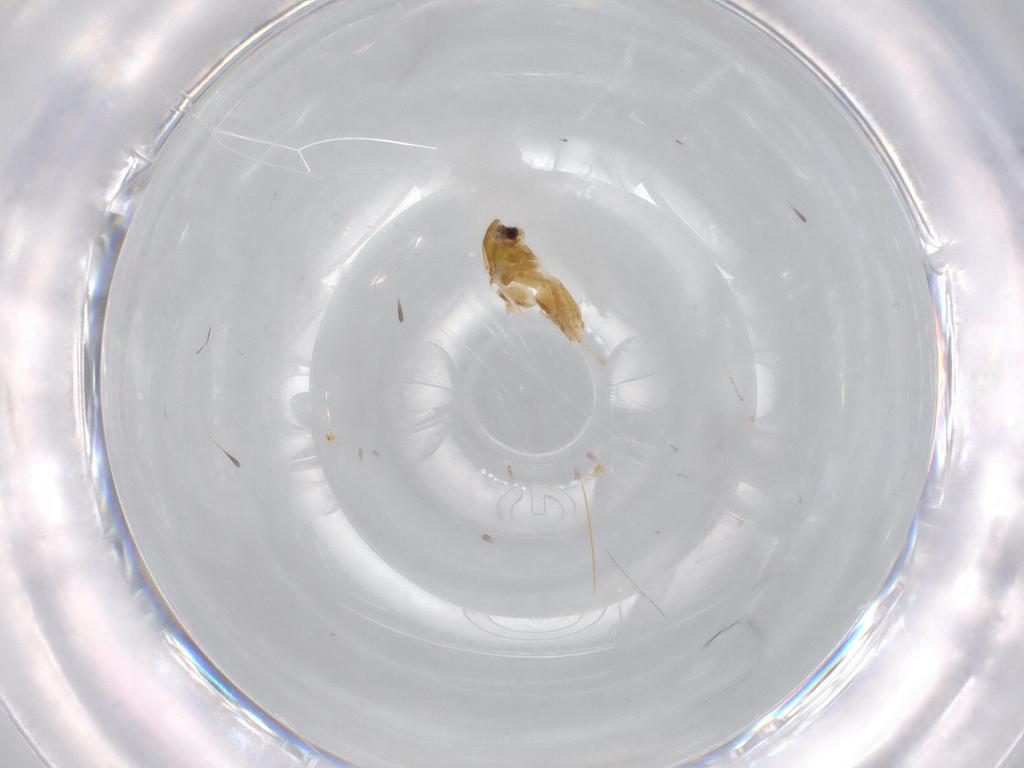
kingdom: Animalia
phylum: Arthropoda
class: Insecta
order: Diptera
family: Chironomidae
